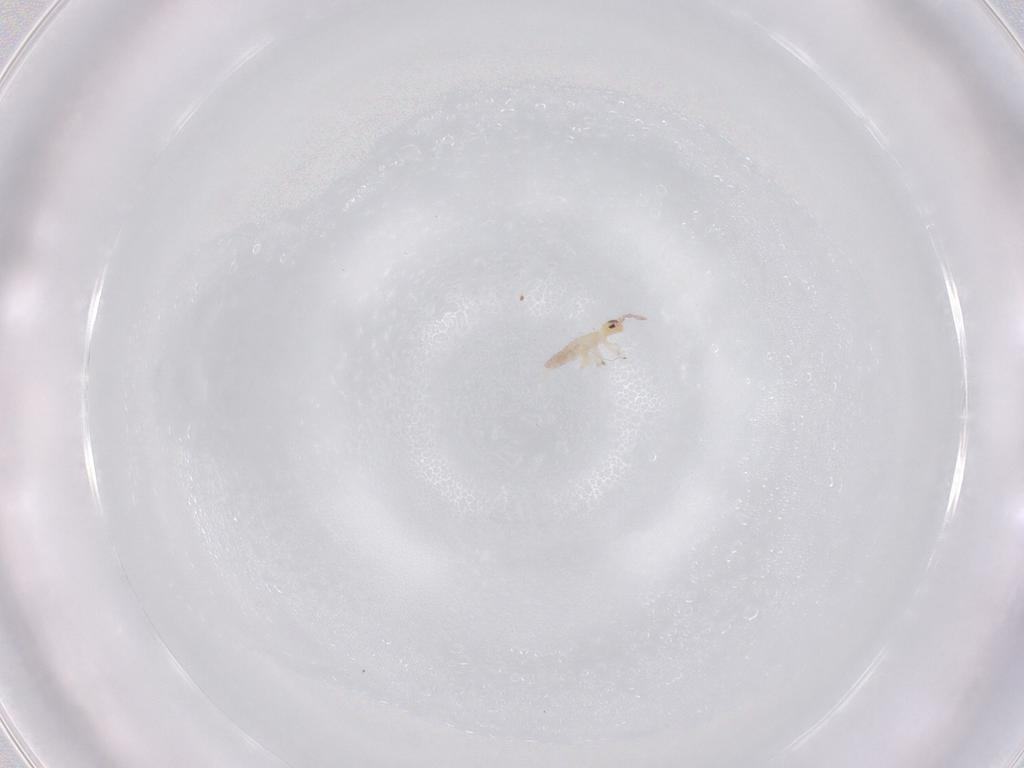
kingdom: Animalia
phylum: Arthropoda
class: Collembola
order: Entomobryomorpha
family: Entomobryidae
